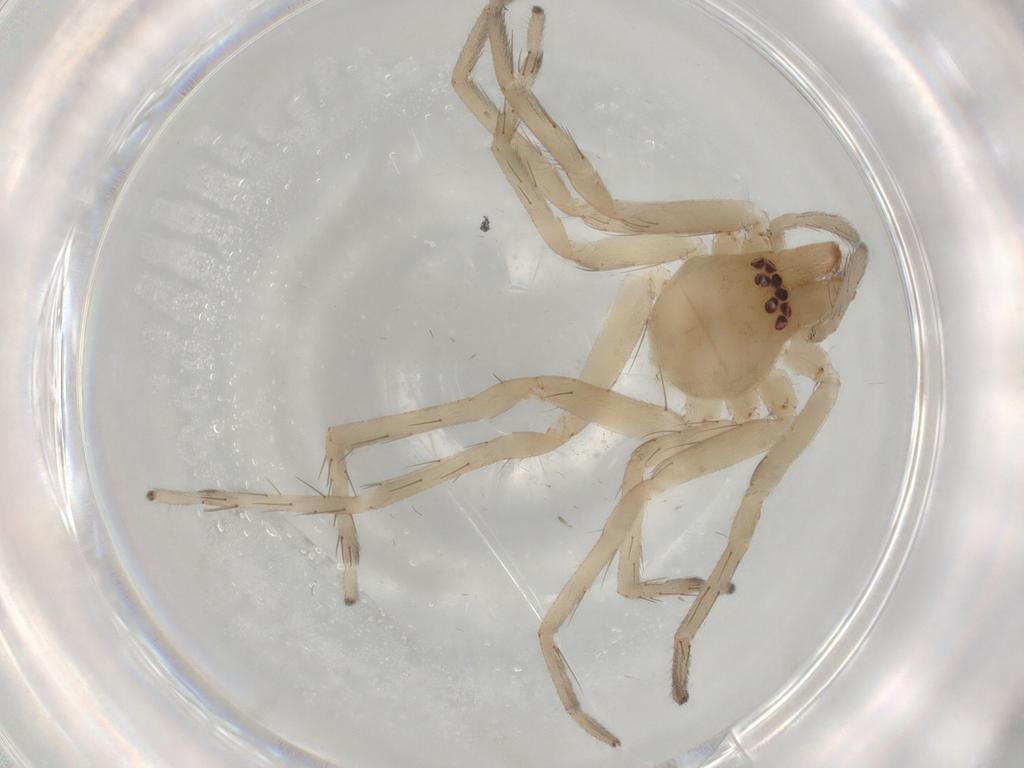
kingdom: Animalia
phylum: Arthropoda
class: Arachnida
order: Araneae
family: Anyphaenidae
